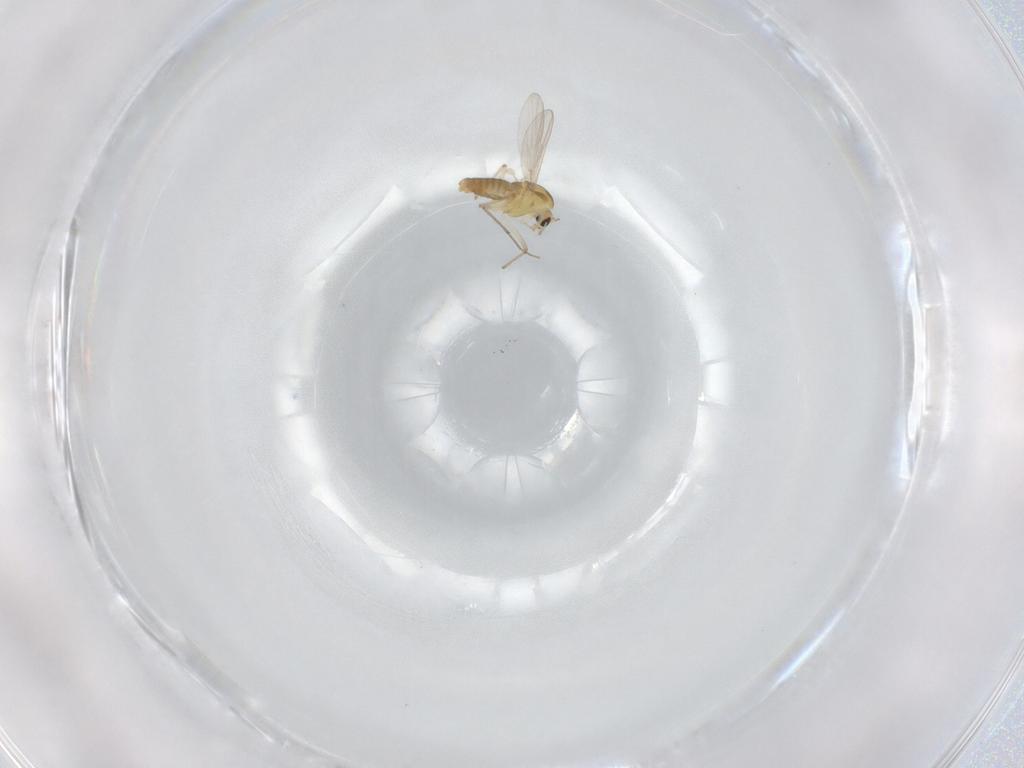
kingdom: Animalia
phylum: Arthropoda
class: Insecta
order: Diptera
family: Chironomidae
